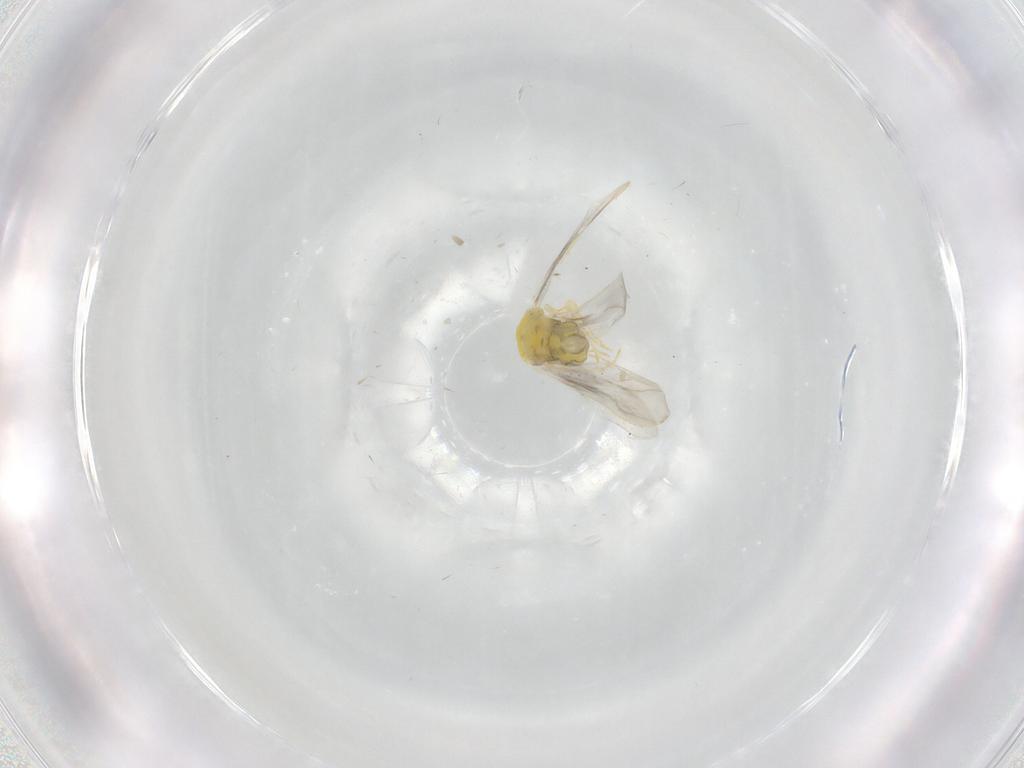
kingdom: Animalia
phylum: Arthropoda
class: Insecta
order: Hemiptera
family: Aleyrodidae
